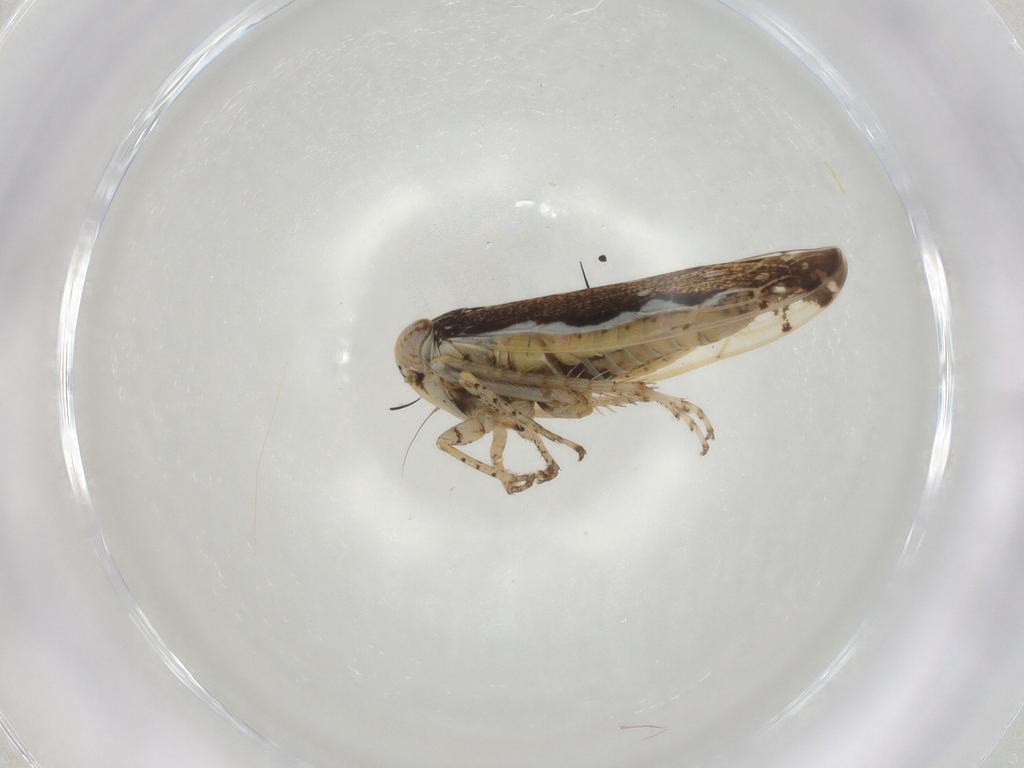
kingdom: Animalia
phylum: Arthropoda
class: Insecta
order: Hemiptera
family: Cicadellidae
